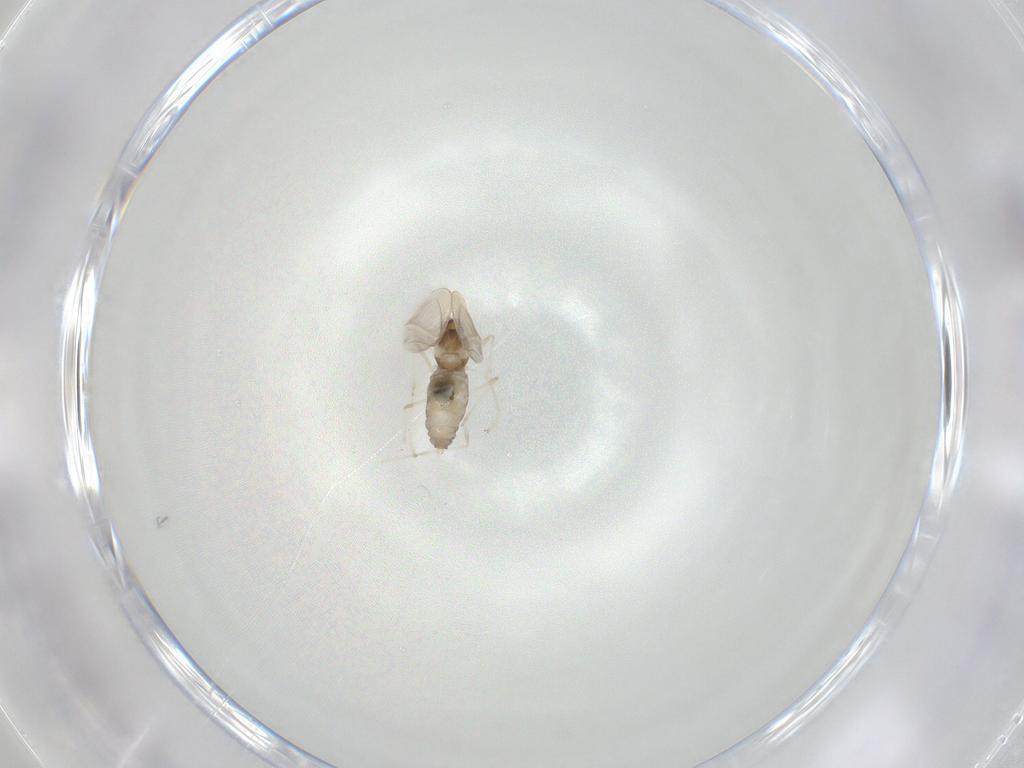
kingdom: Animalia
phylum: Arthropoda
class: Insecta
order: Diptera
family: Cecidomyiidae
